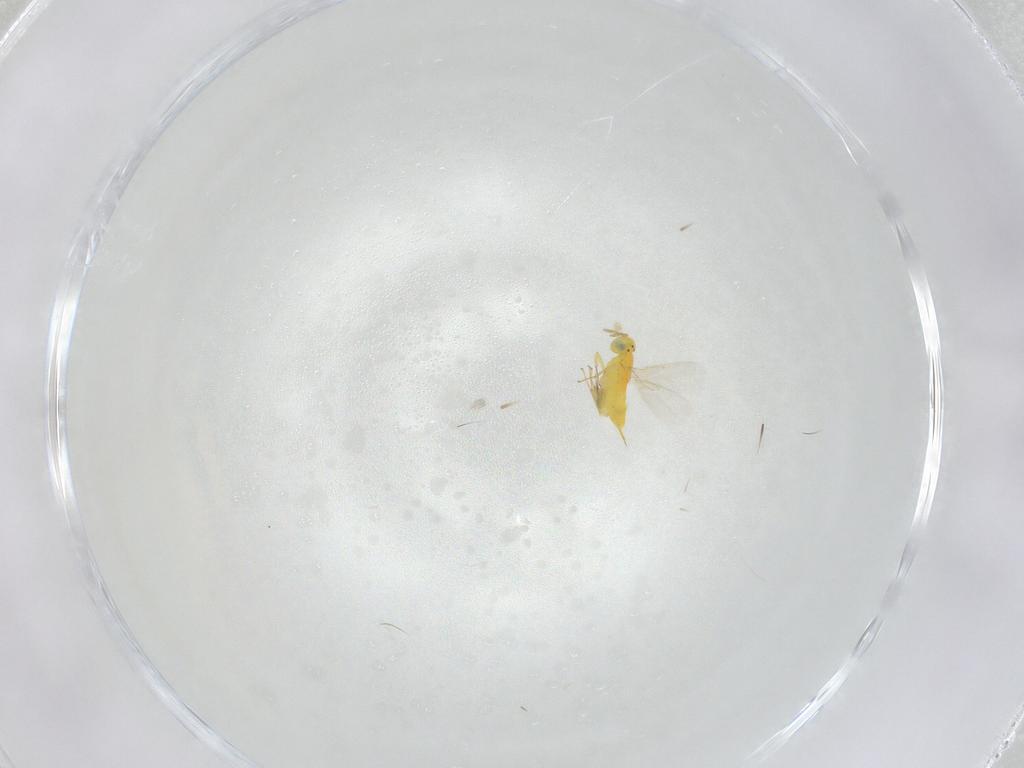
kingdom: Animalia
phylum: Arthropoda
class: Insecta
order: Hymenoptera
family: Aphelinidae
